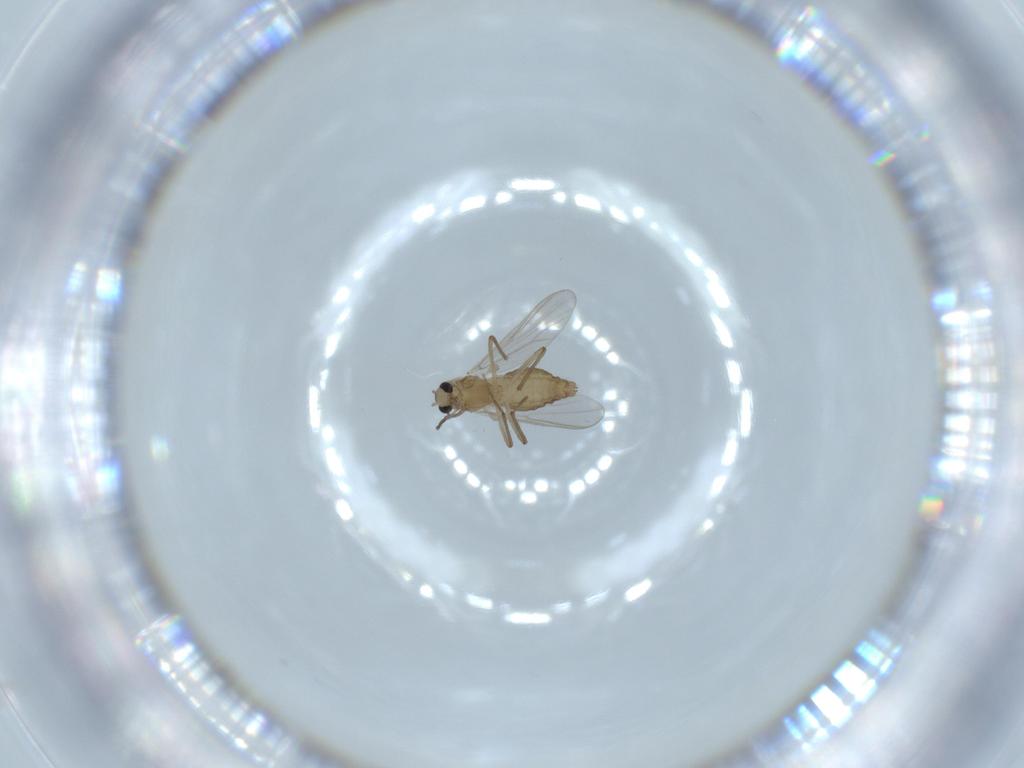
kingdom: Animalia
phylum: Arthropoda
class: Insecta
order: Diptera
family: Chironomidae
